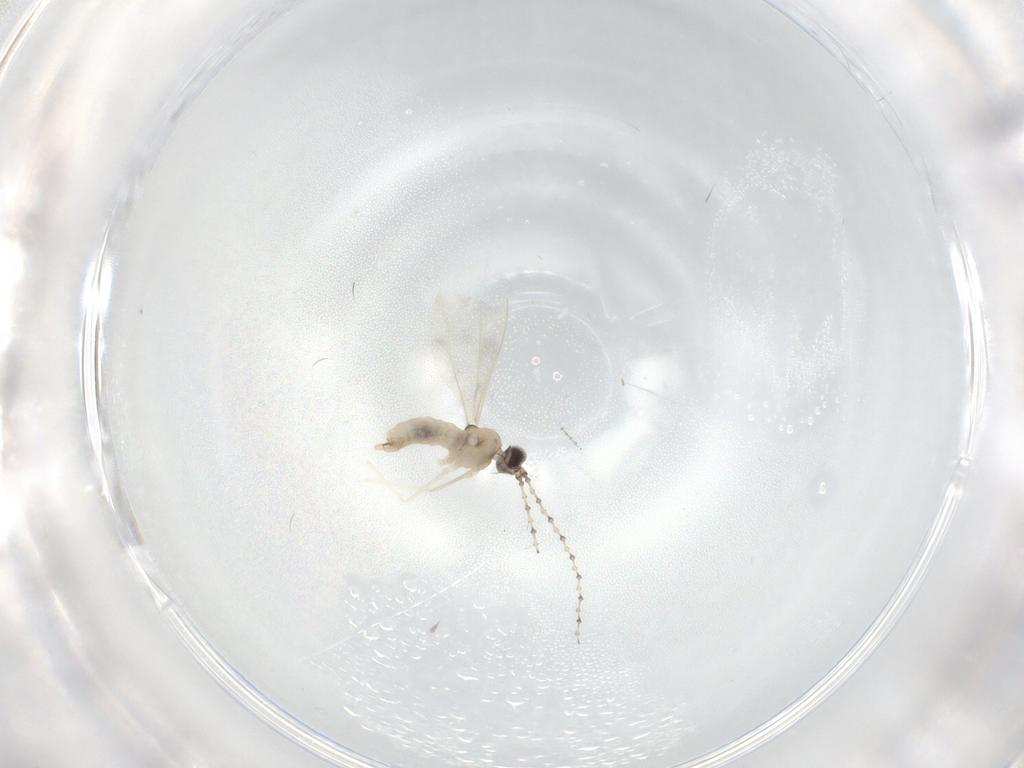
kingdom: Animalia
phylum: Arthropoda
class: Insecta
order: Diptera
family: Cecidomyiidae
